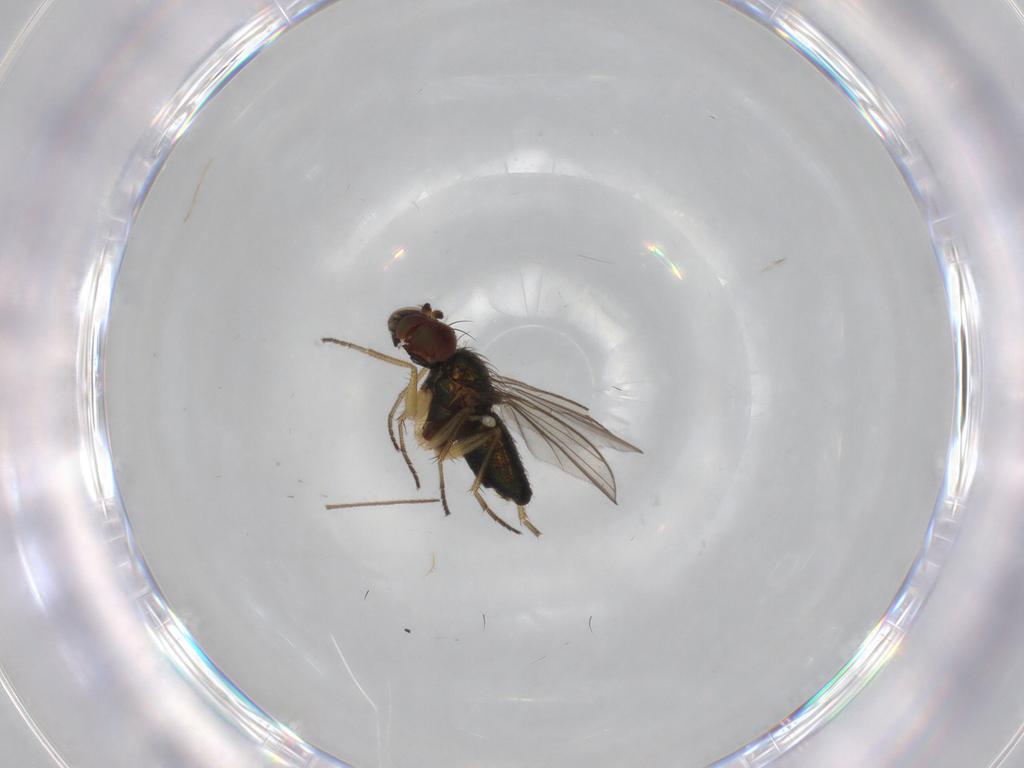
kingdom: Animalia
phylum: Arthropoda
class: Insecta
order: Diptera
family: Limoniidae
